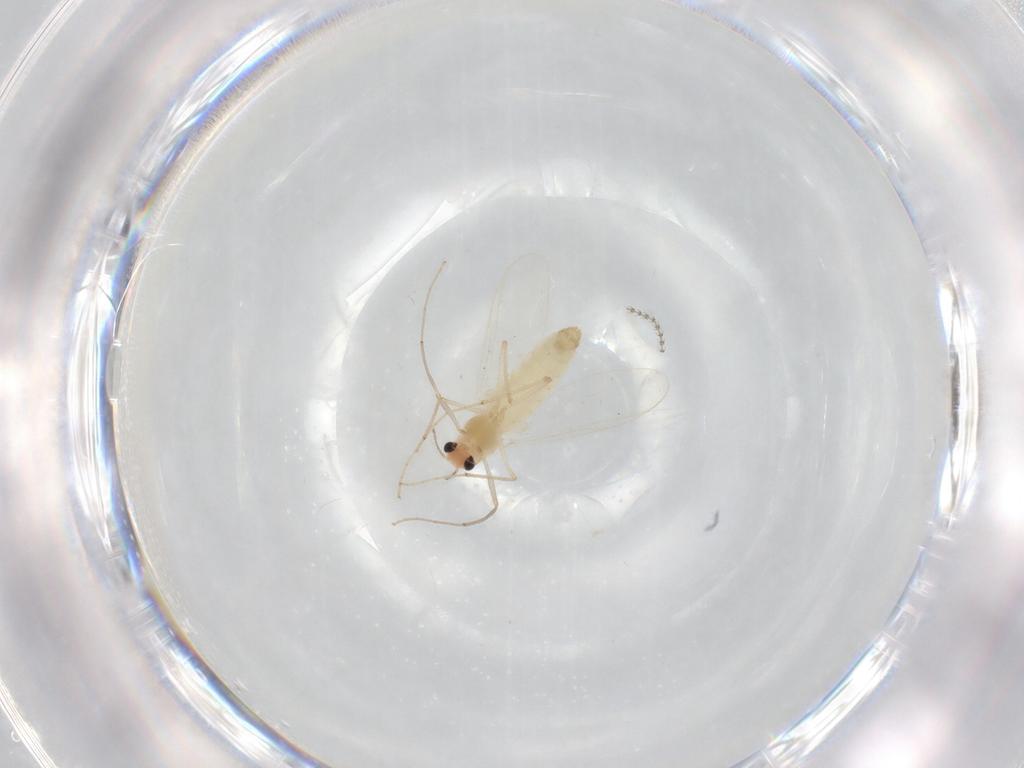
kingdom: Animalia
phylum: Arthropoda
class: Insecta
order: Diptera
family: Chironomidae
